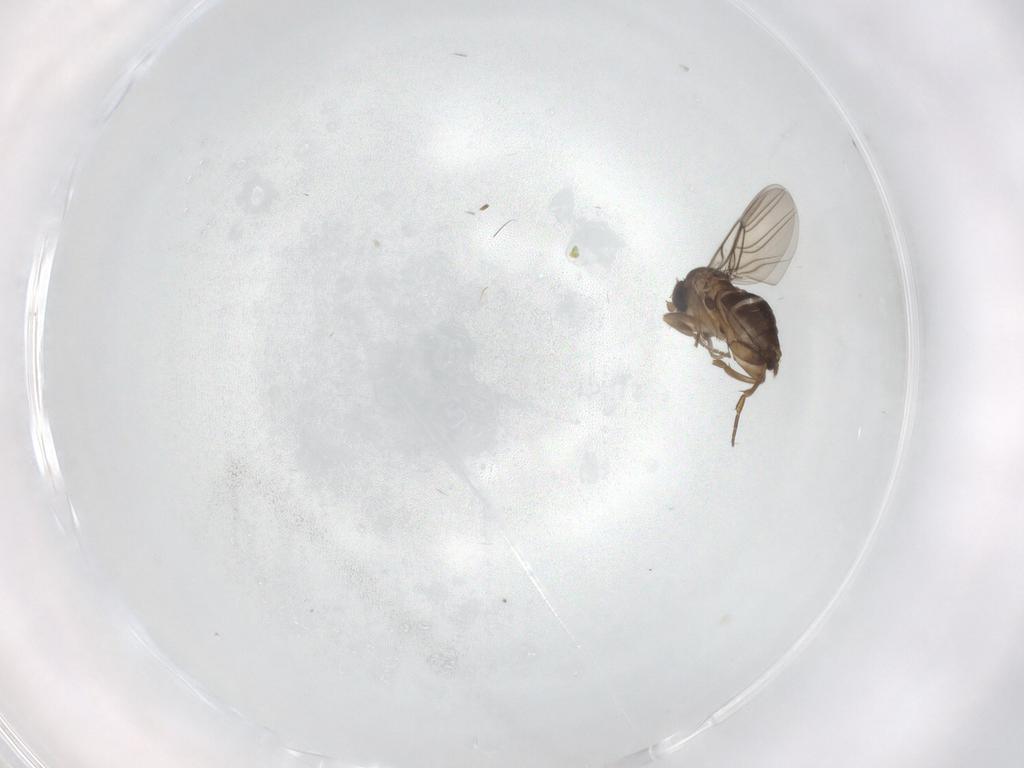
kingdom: Animalia
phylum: Arthropoda
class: Insecta
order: Diptera
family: Phoridae
